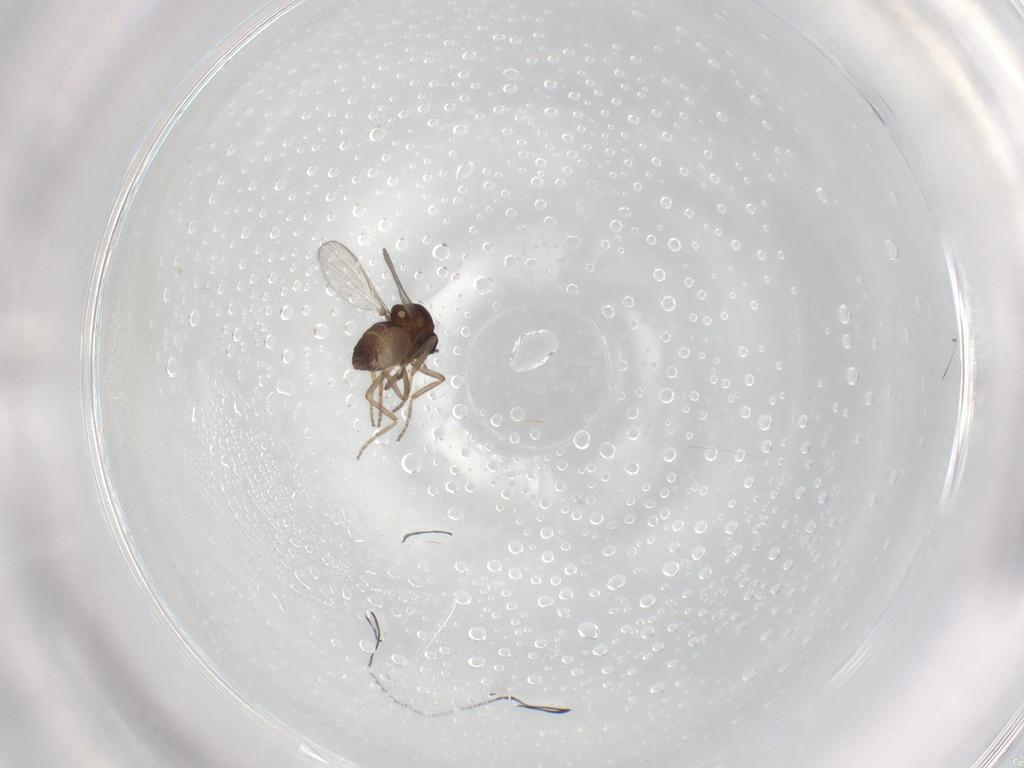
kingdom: Animalia
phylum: Arthropoda
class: Insecta
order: Diptera
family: Ceratopogonidae
